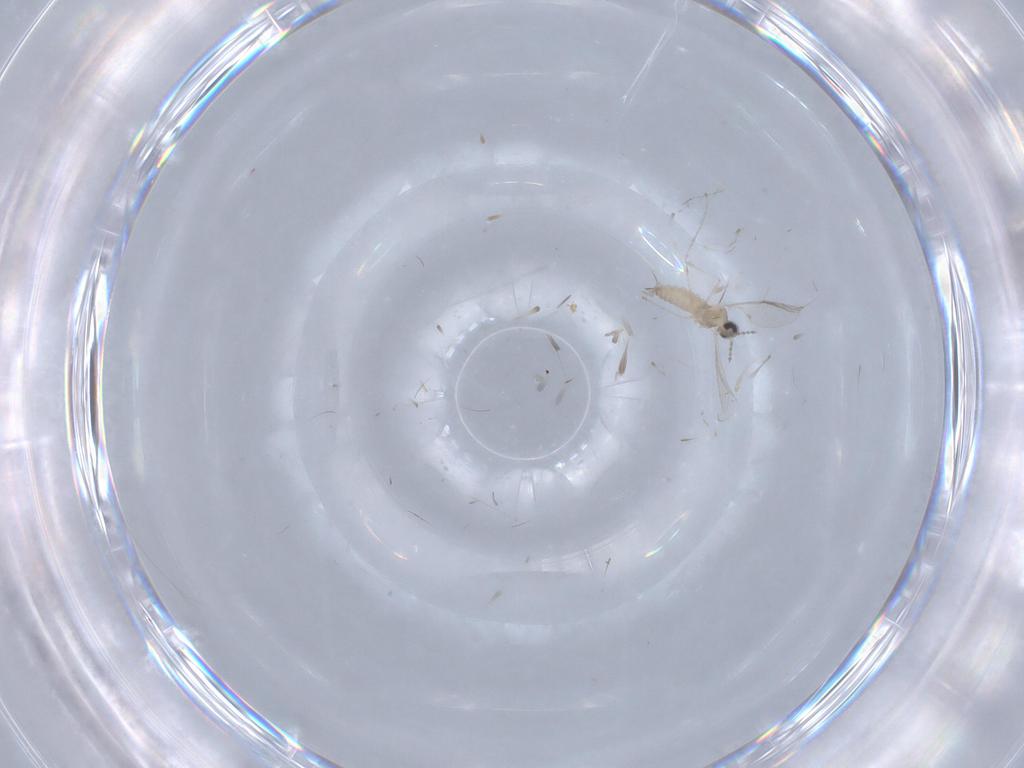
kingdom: Animalia
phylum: Arthropoda
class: Insecta
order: Diptera
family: Cecidomyiidae
